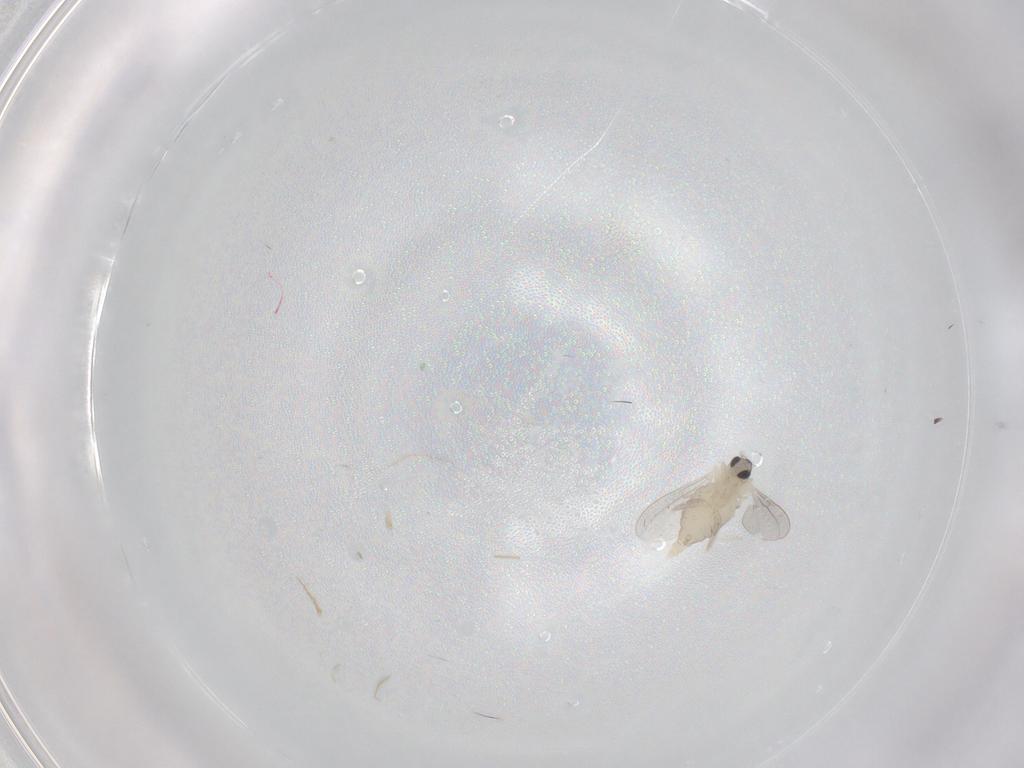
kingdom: Animalia
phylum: Arthropoda
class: Insecta
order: Diptera
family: Cecidomyiidae
